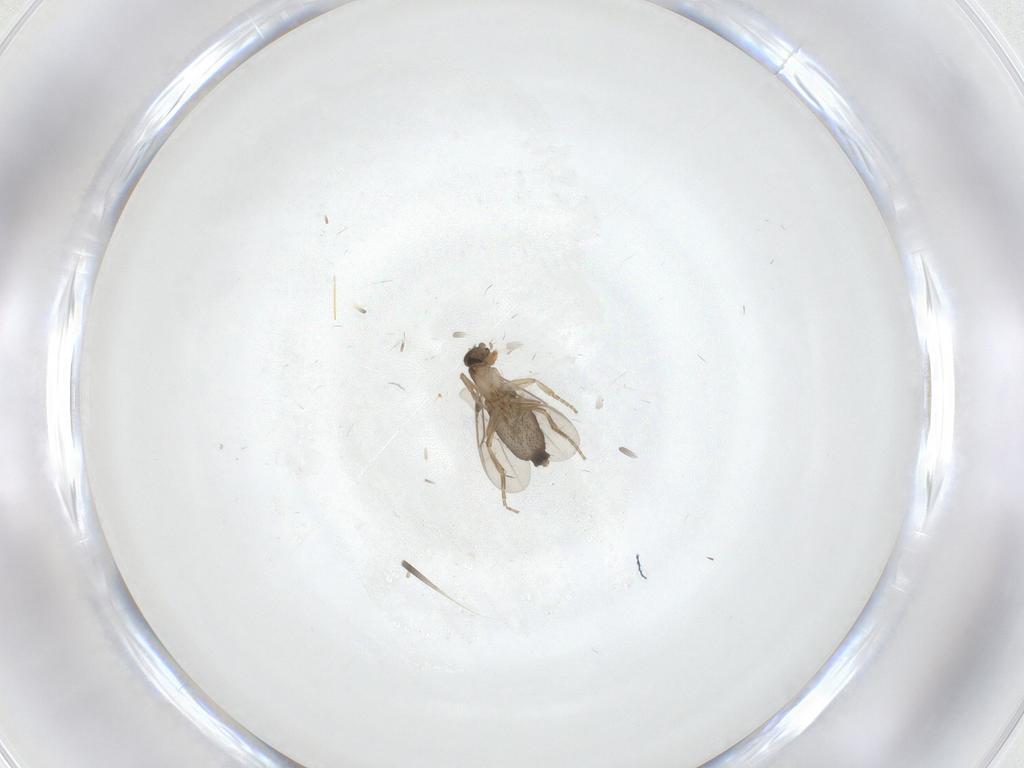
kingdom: Animalia
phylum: Arthropoda
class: Insecta
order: Diptera
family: Phoridae
